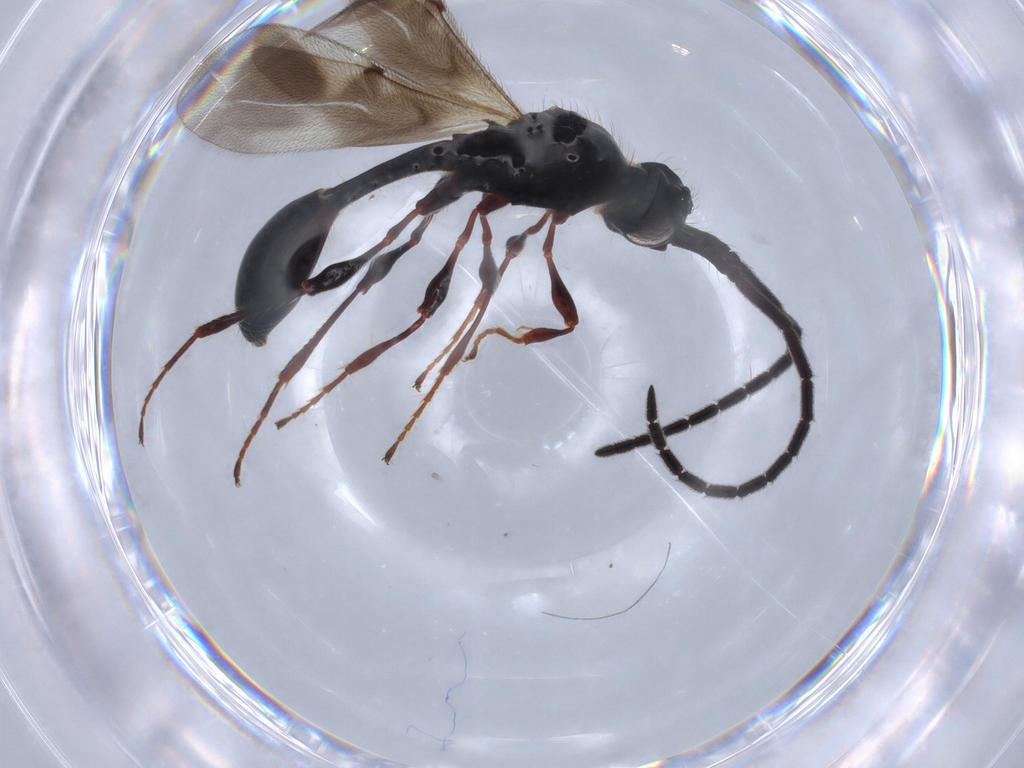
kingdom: Animalia
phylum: Arthropoda
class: Insecta
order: Hymenoptera
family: Diapriidae
